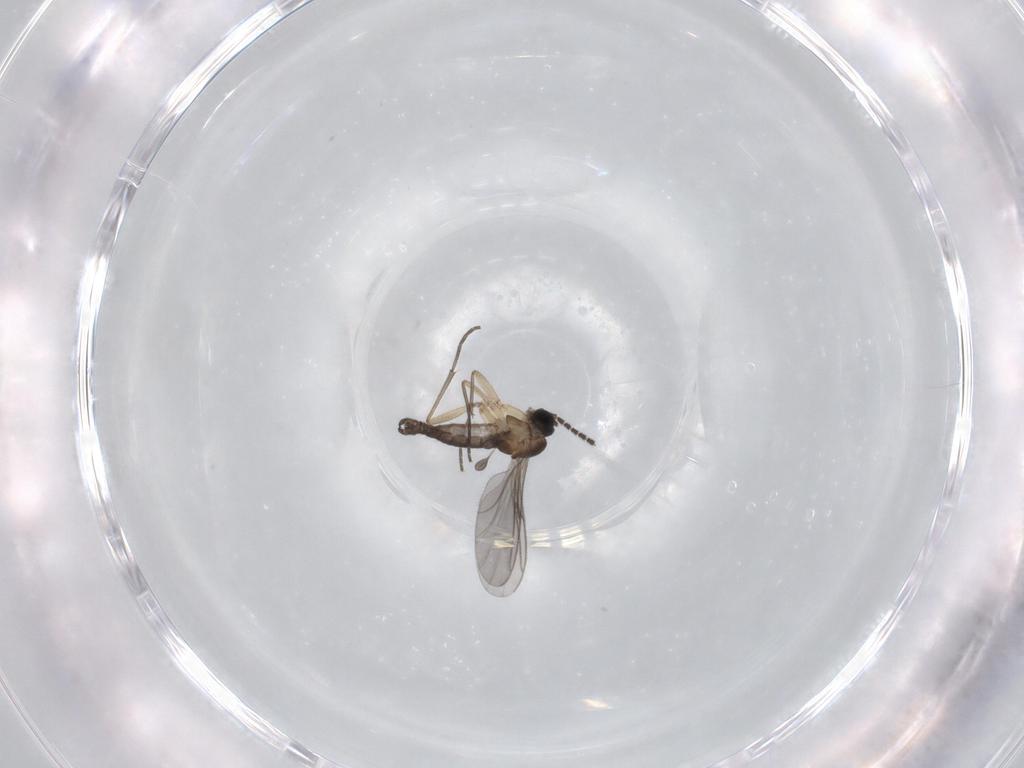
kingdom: Animalia
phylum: Arthropoda
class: Insecta
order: Diptera
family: Sciaridae
